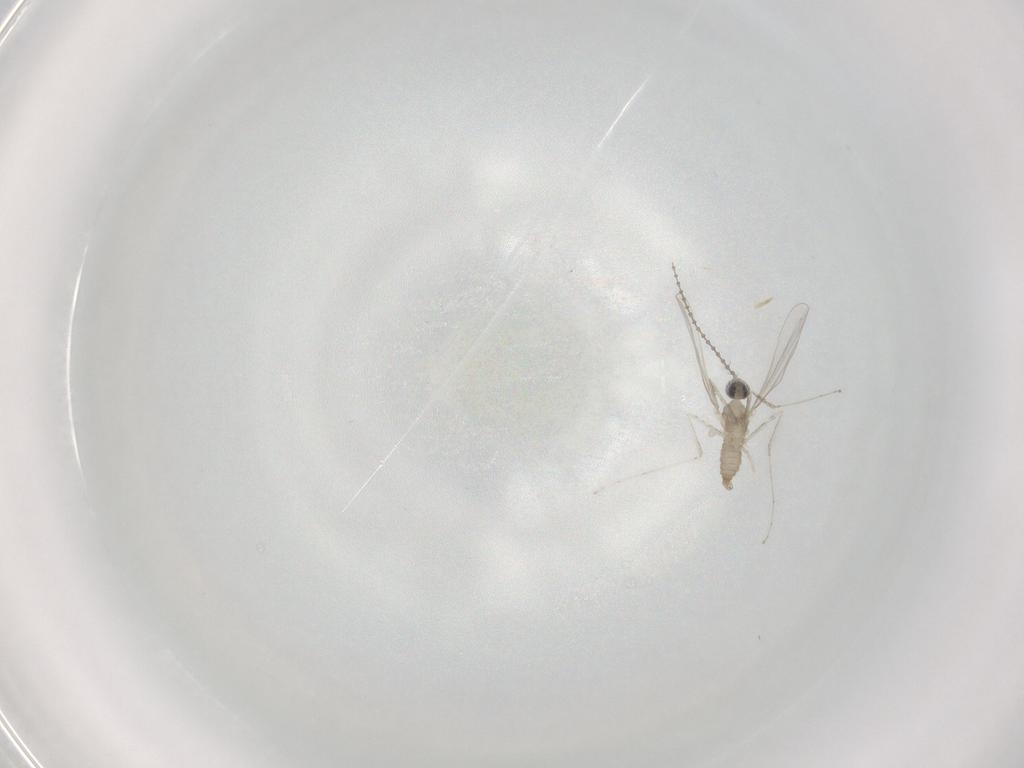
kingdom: Animalia
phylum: Arthropoda
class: Insecta
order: Diptera
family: Cecidomyiidae
